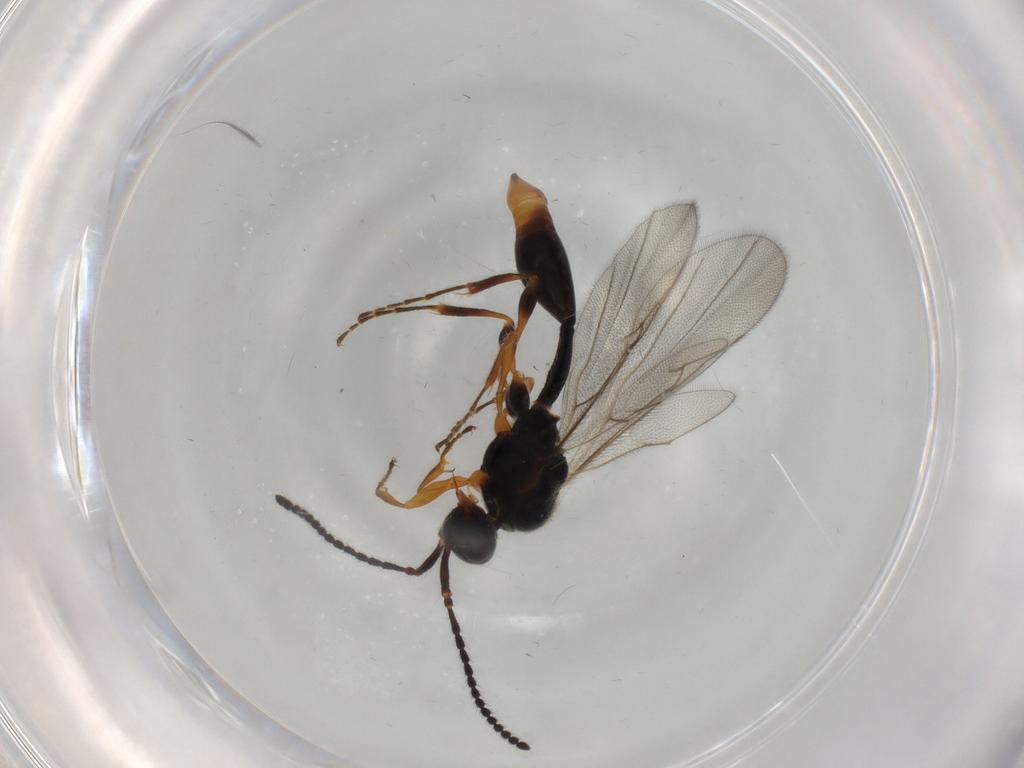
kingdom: Animalia
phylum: Arthropoda
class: Insecta
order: Hymenoptera
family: Diapriidae
